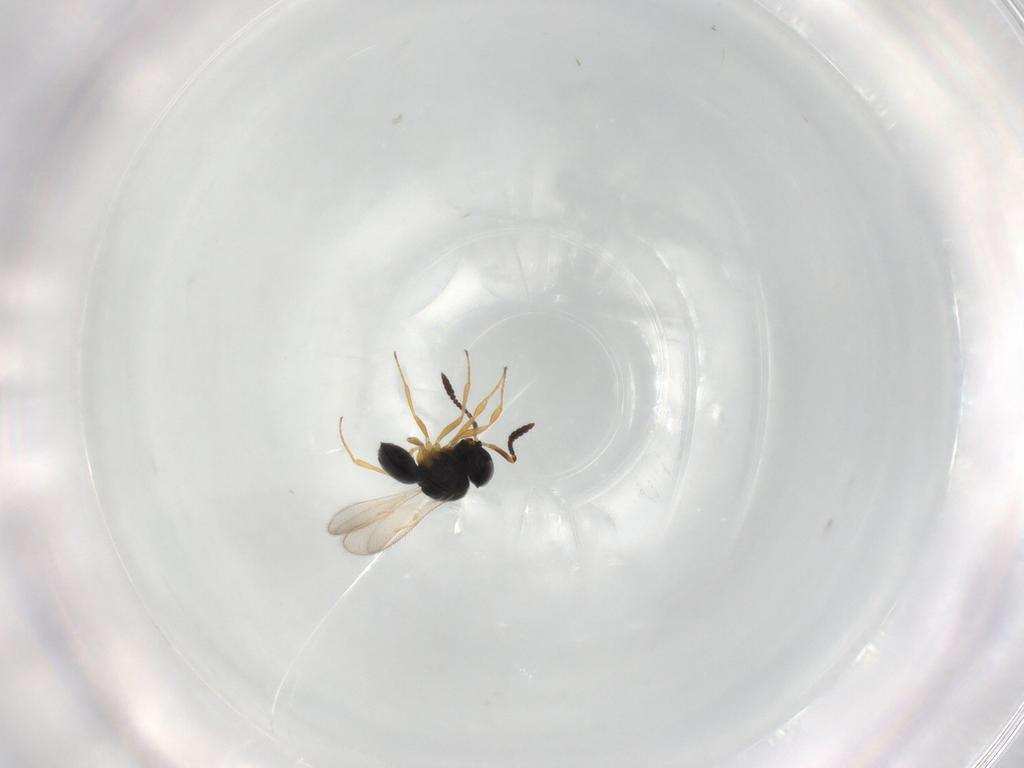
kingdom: Animalia
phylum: Arthropoda
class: Insecta
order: Hymenoptera
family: Scelionidae
